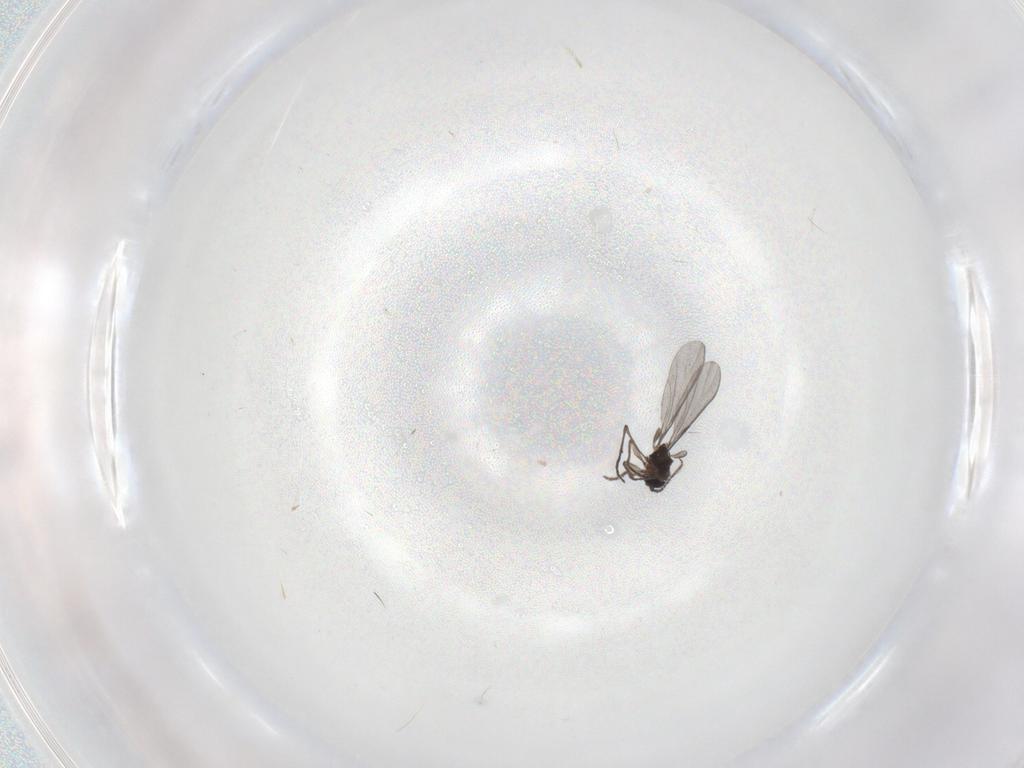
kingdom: Animalia
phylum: Arthropoda
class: Insecta
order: Diptera
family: Sciaridae
